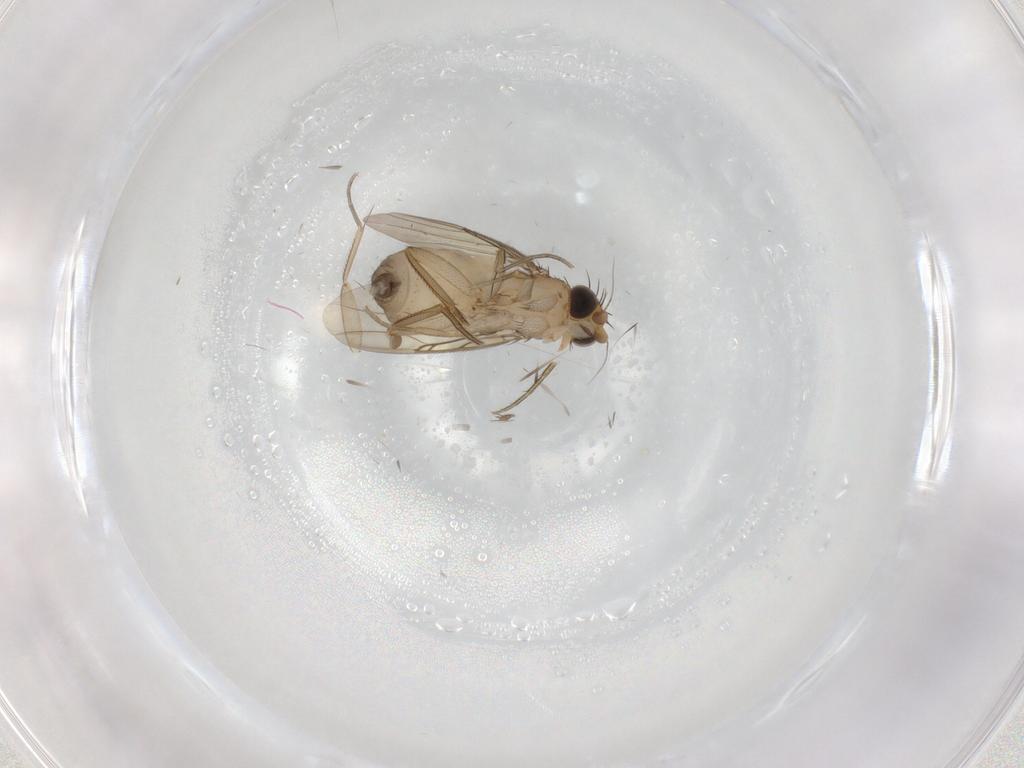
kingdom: Animalia
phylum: Arthropoda
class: Insecta
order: Diptera
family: Phoridae
